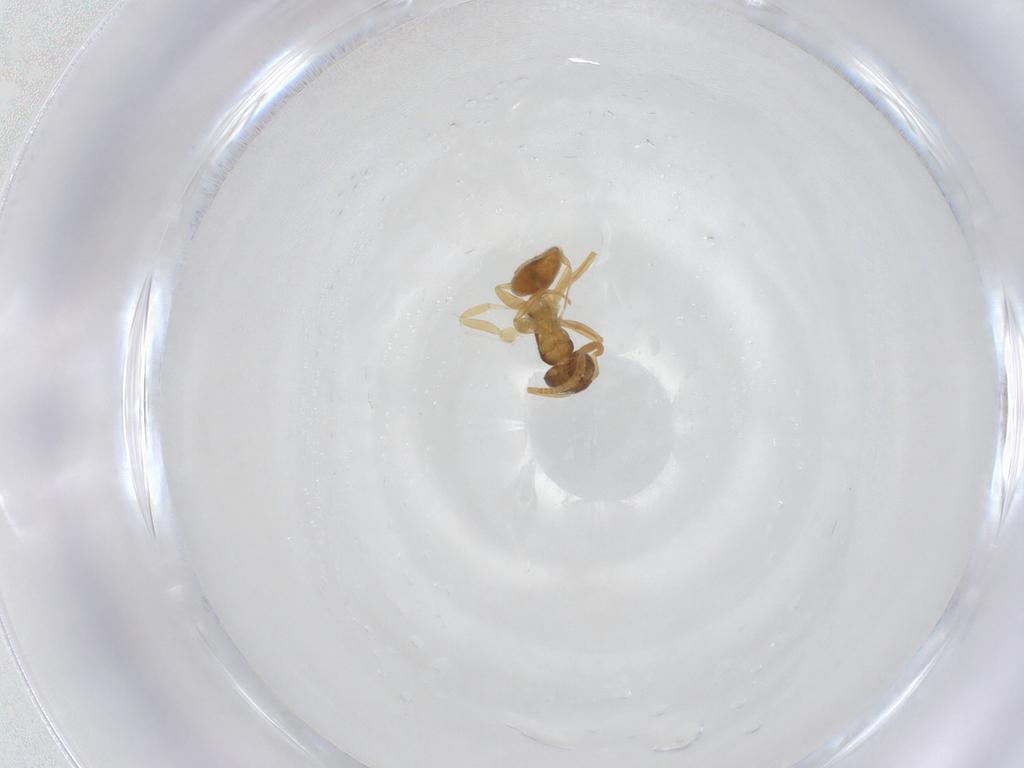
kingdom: Animalia
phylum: Arthropoda
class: Insecta
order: Hymenoptera
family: Formicidae
